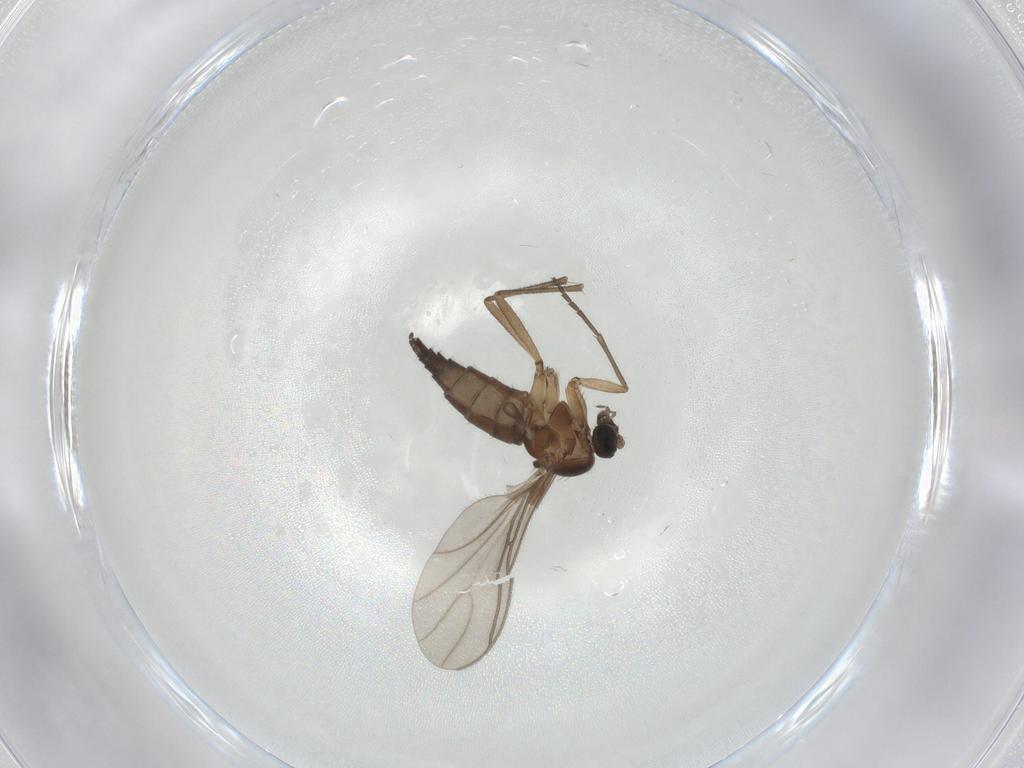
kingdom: Animalia
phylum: Arthropoda
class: Insecta
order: Diptera
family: Sciaridae
